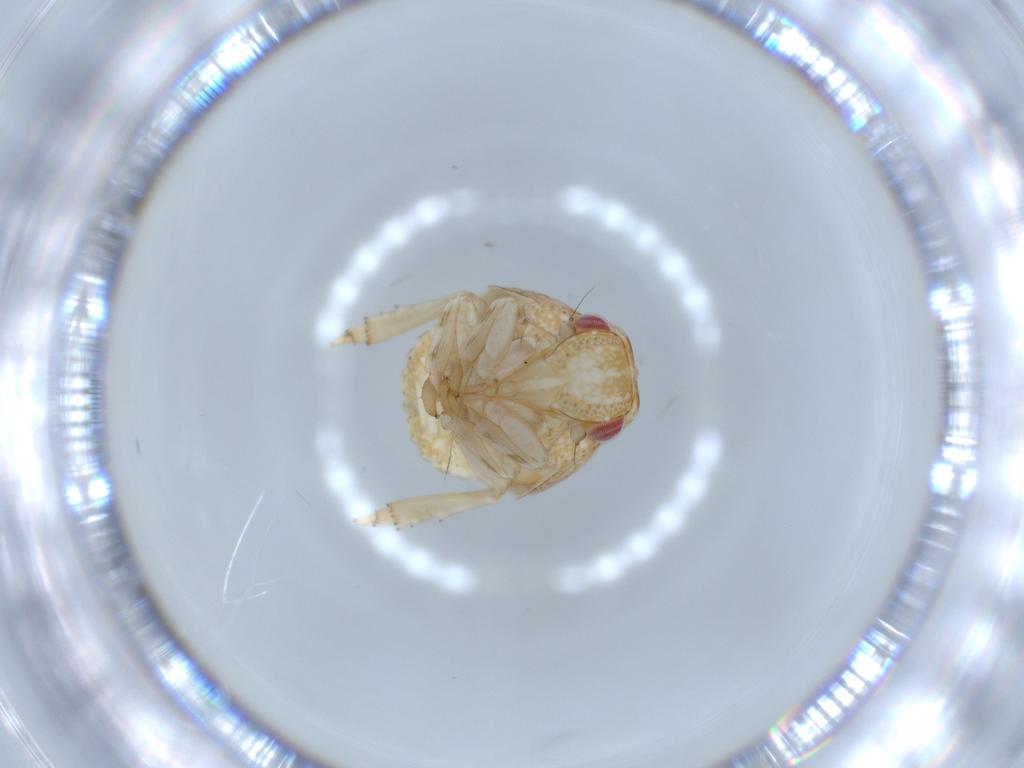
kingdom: Animalia
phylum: Arthropoda
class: Insecta
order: Hemiptera
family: Acanaloniidae
